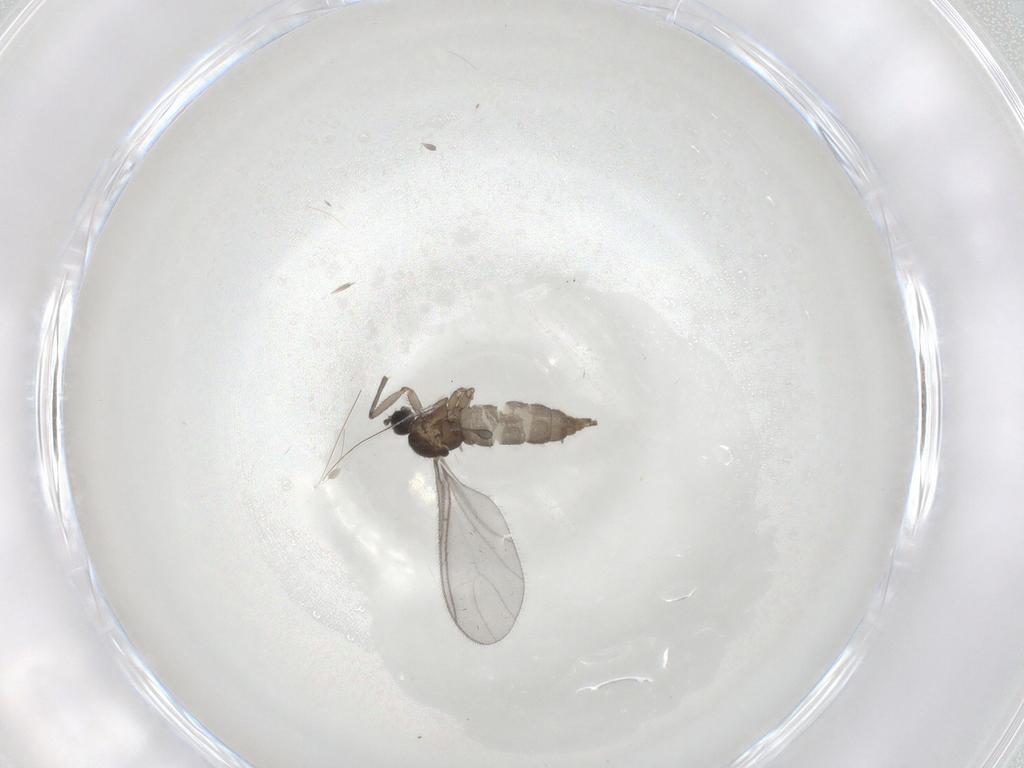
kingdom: Animalia
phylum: Arthropoda
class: Insecta
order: Diptera
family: Sciaridae
